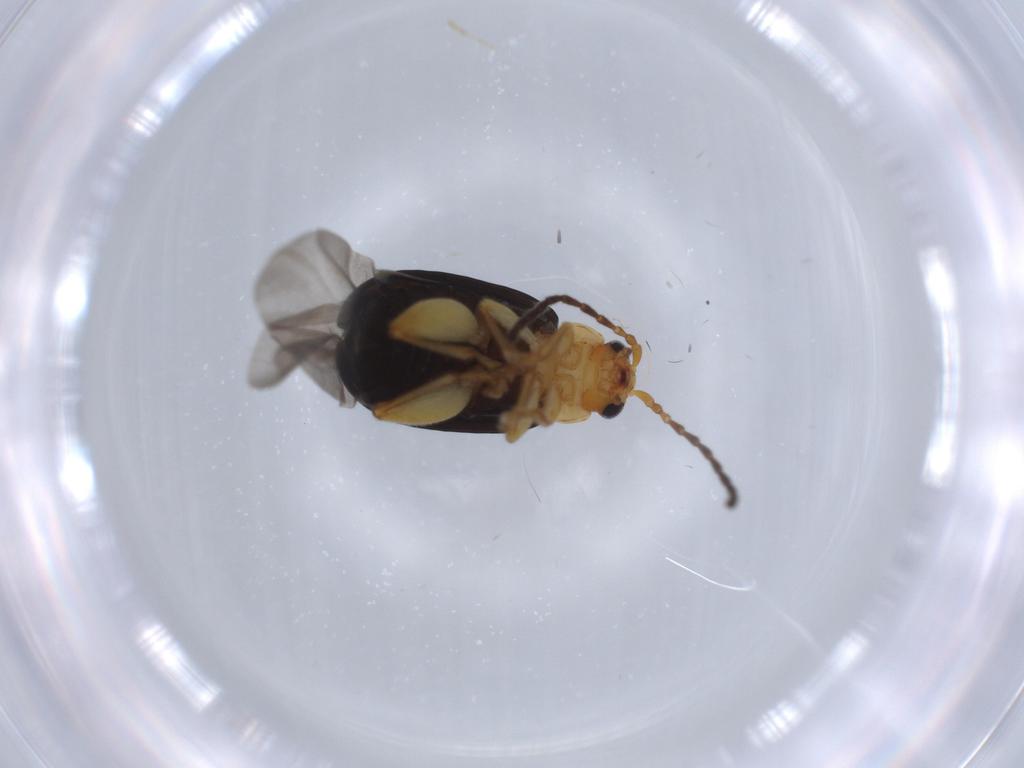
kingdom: Animalia
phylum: Arthropoda
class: Insecta
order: Coleoptera
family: Chrysomelidae
